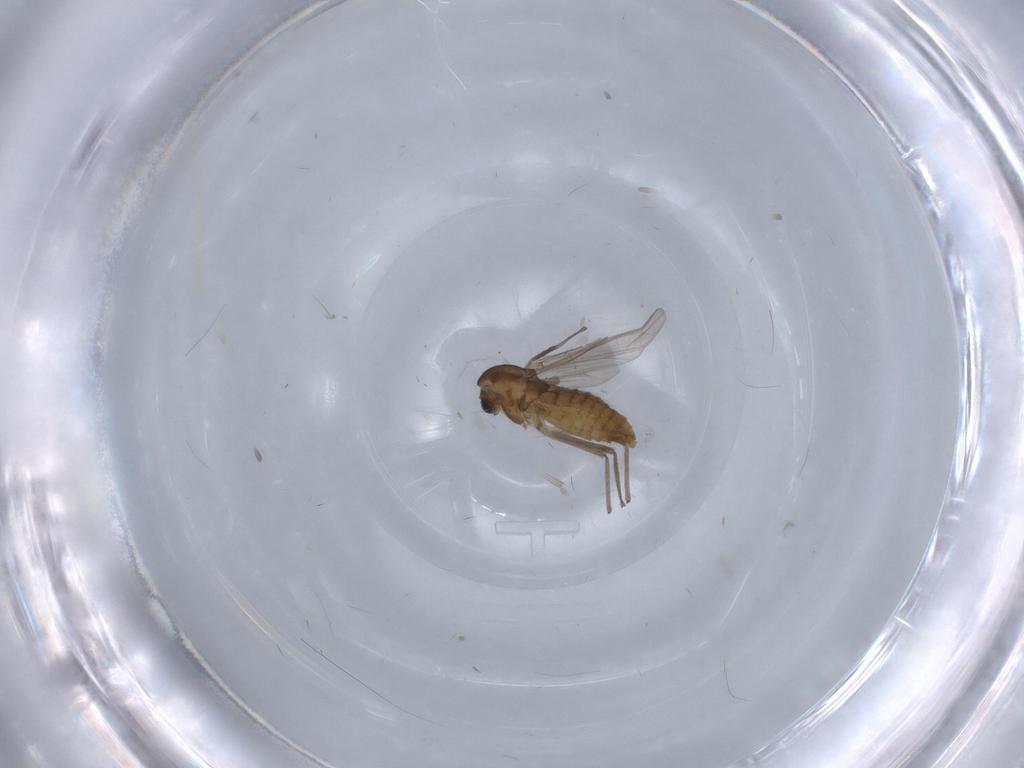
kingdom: Animalia
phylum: Arthropoda
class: Insecta
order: Diptera
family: Chironomidae
